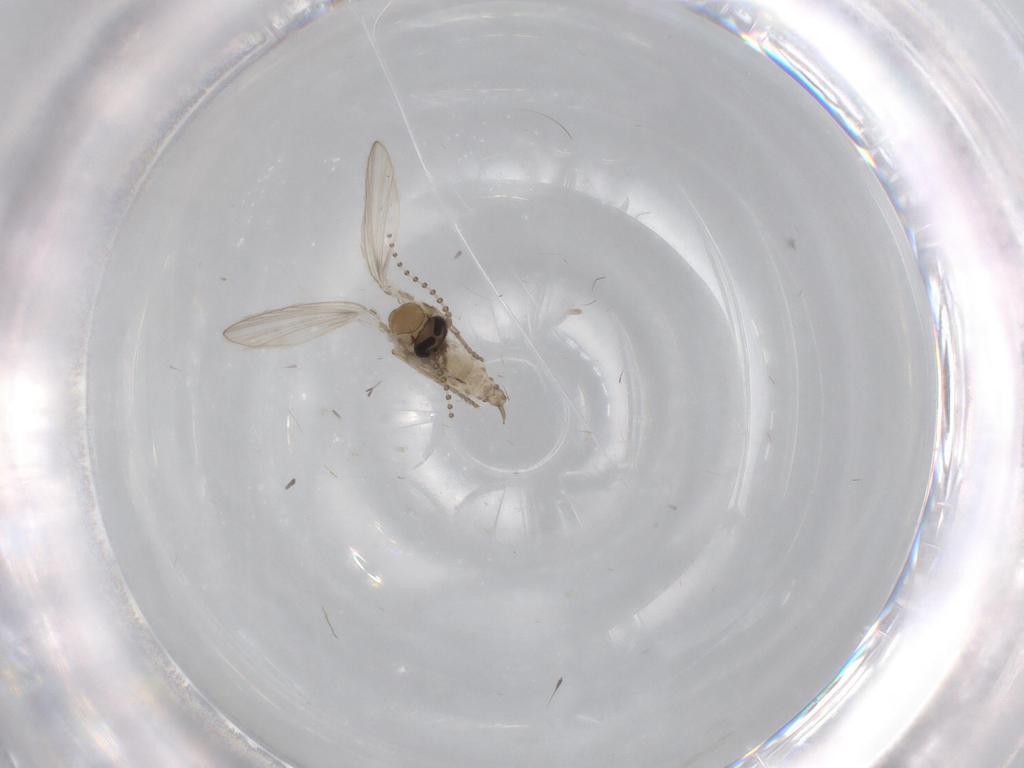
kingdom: Animalia
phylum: Arthropoda
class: Insecta
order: Diptera
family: Psychodidae
